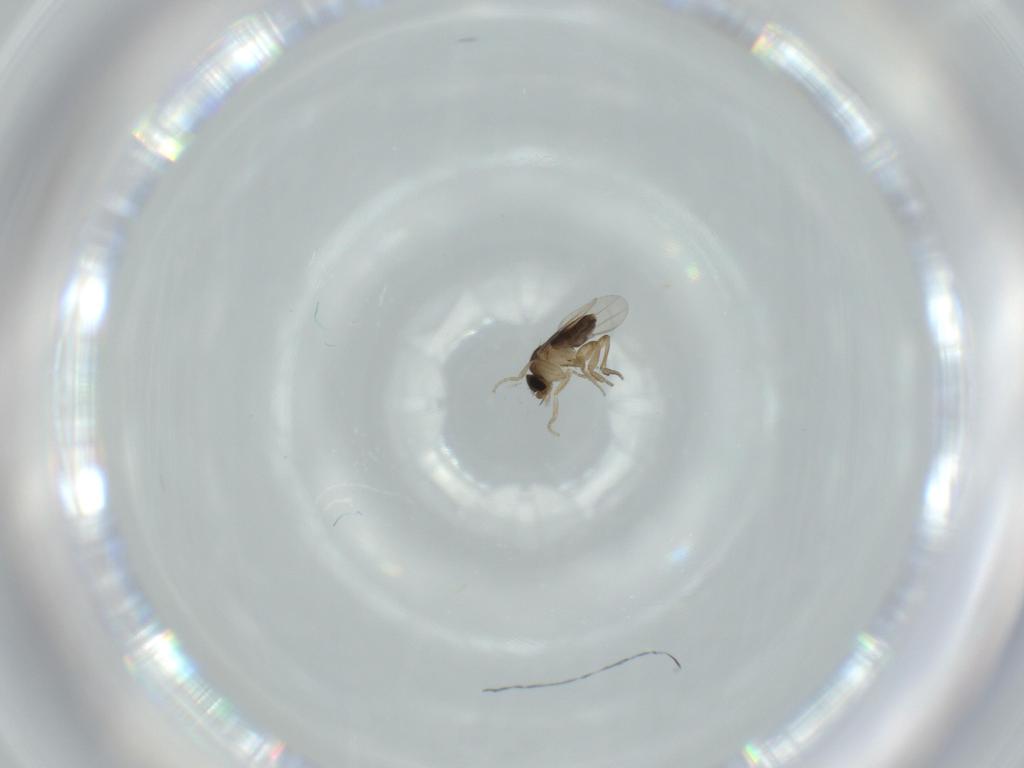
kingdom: Animalia
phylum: Arthropoda
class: Insecta
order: Diptera
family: Phoridae
